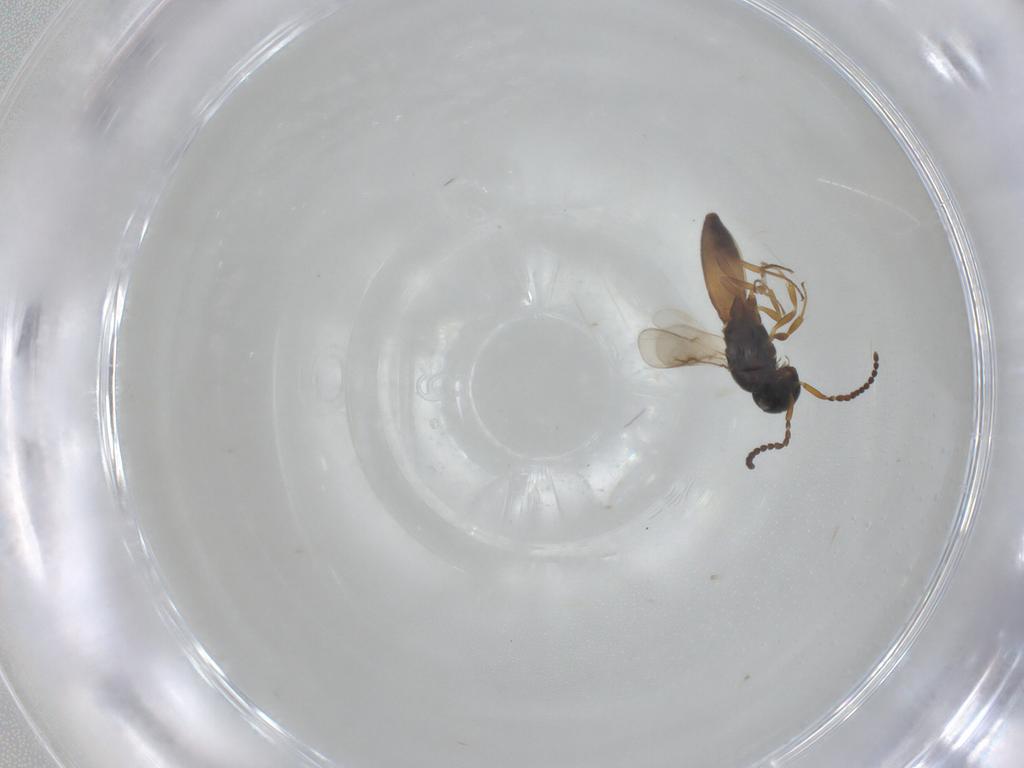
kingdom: Animalia
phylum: Arthropoda
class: Insecta
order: Hymenoptera
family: Scelionidae
